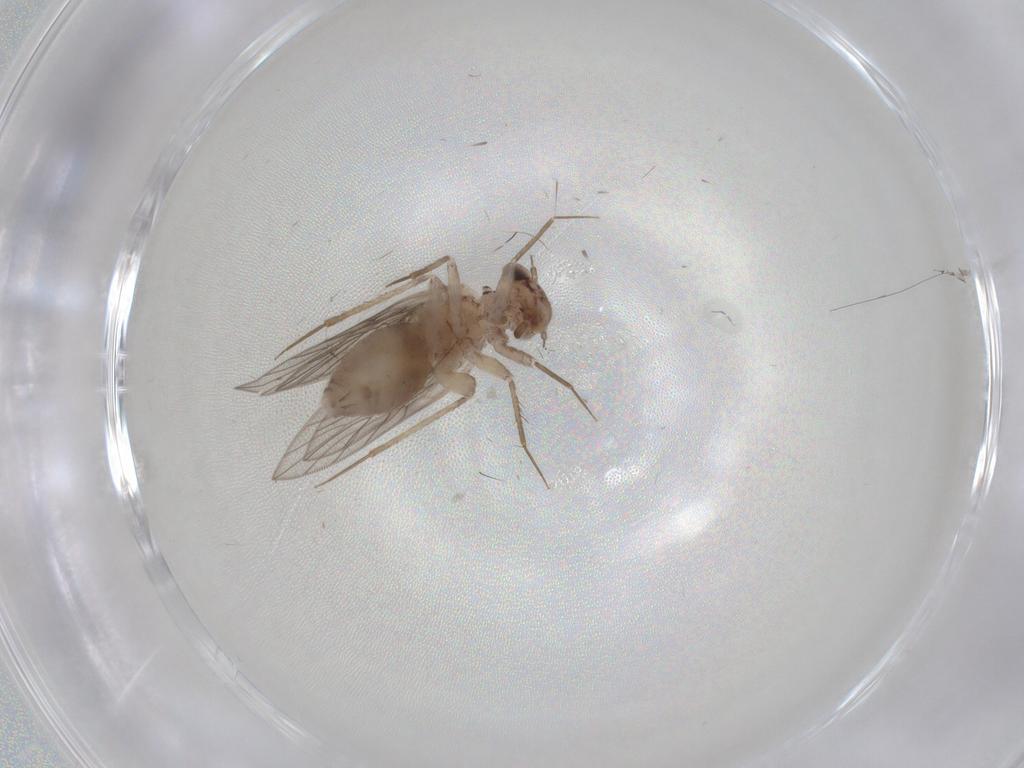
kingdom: Animalia
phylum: Arthropoda
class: Insecta
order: Psocodea
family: Lepidopsocidae
